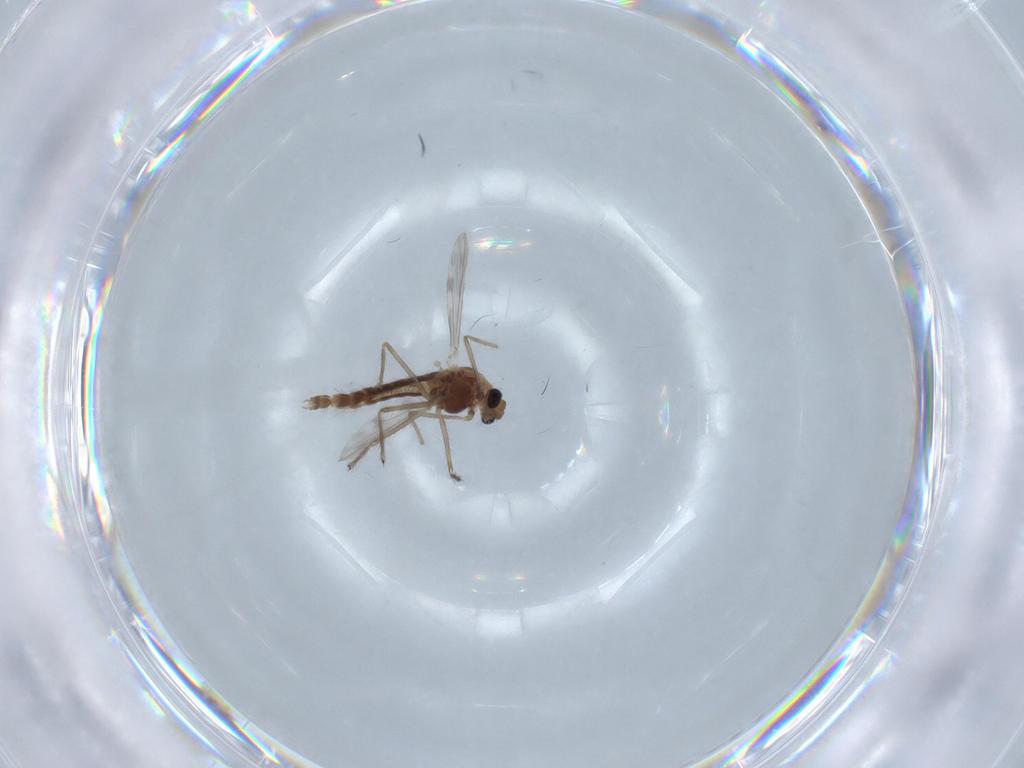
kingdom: Animalia
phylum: Arthropoda
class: Insecta
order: Diptera
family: Chironomidae
